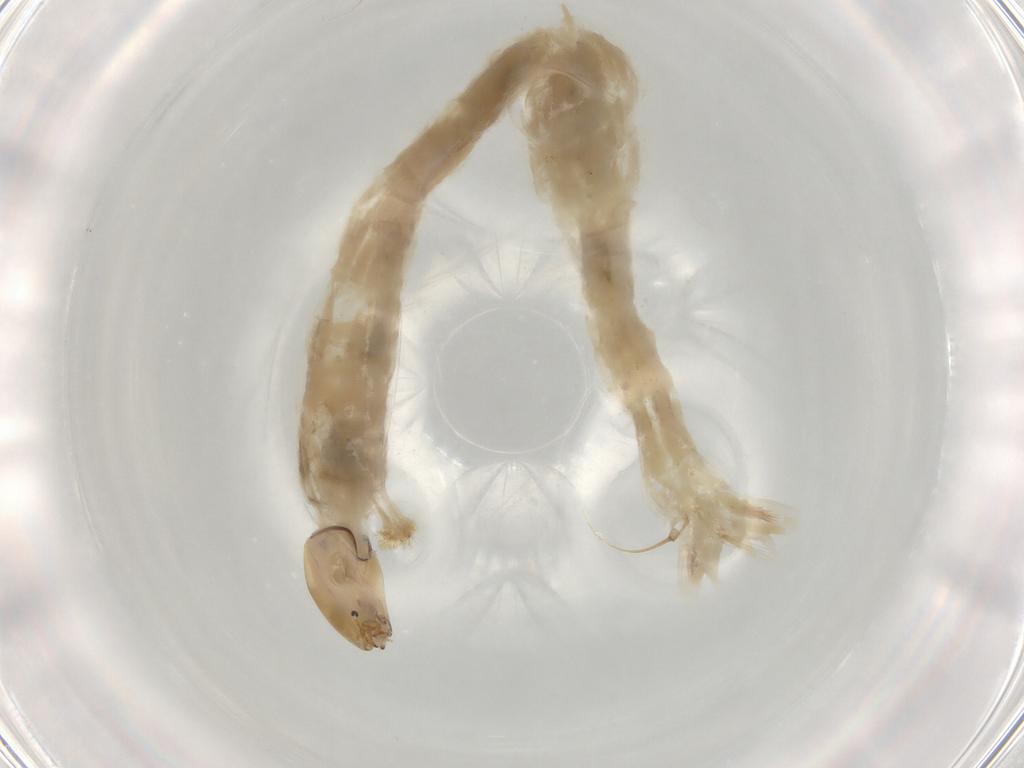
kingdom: Animalia
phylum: Arthropoda
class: Insecta
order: Diptera
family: Chironomidae
